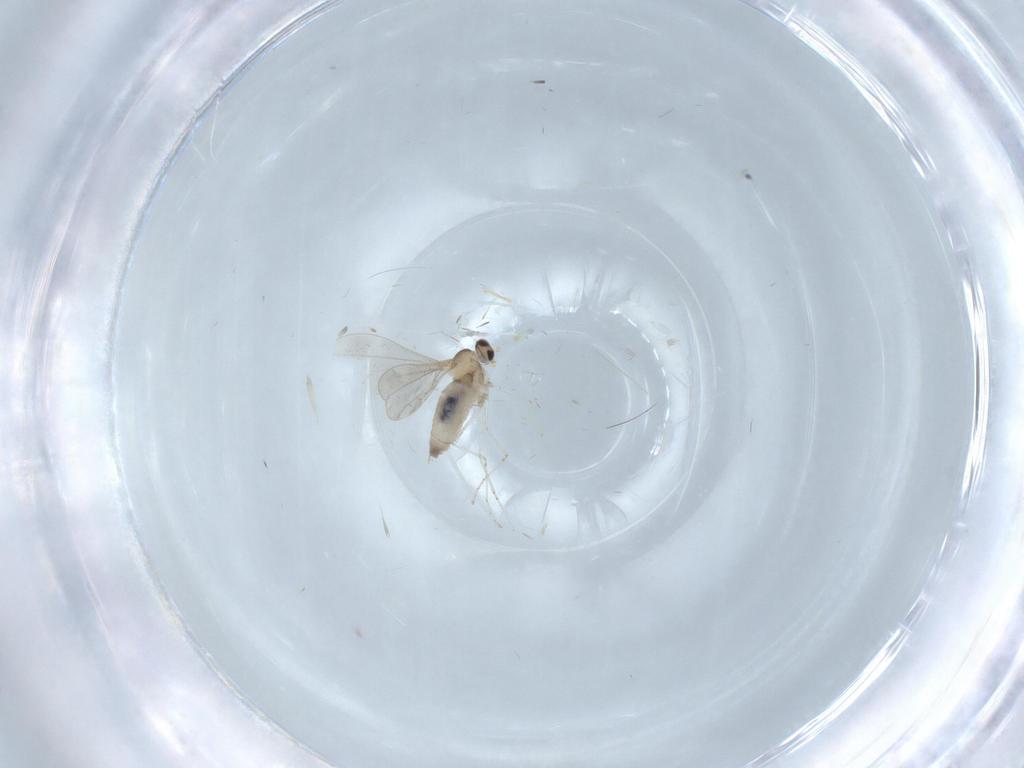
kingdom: Animalia
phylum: Arthropoda
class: Insecta
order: Diptera
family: Cecidomyiidae
